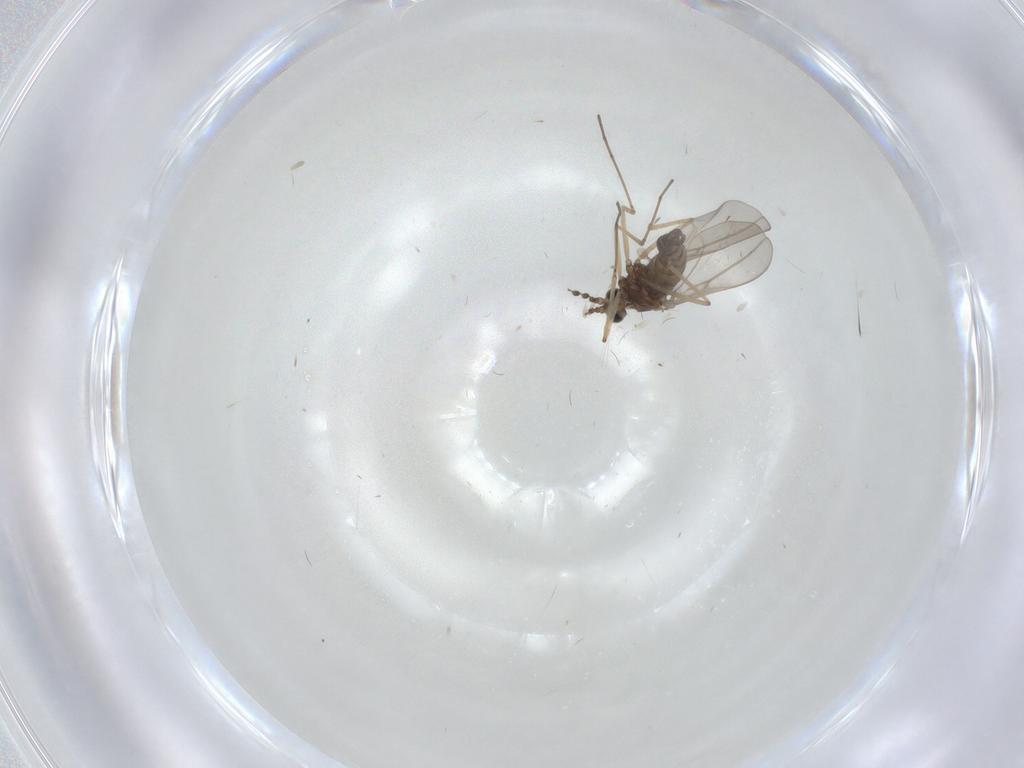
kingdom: Animalia
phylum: Arthropoda
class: Insecta
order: Diptera
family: Cecidomyiidae
